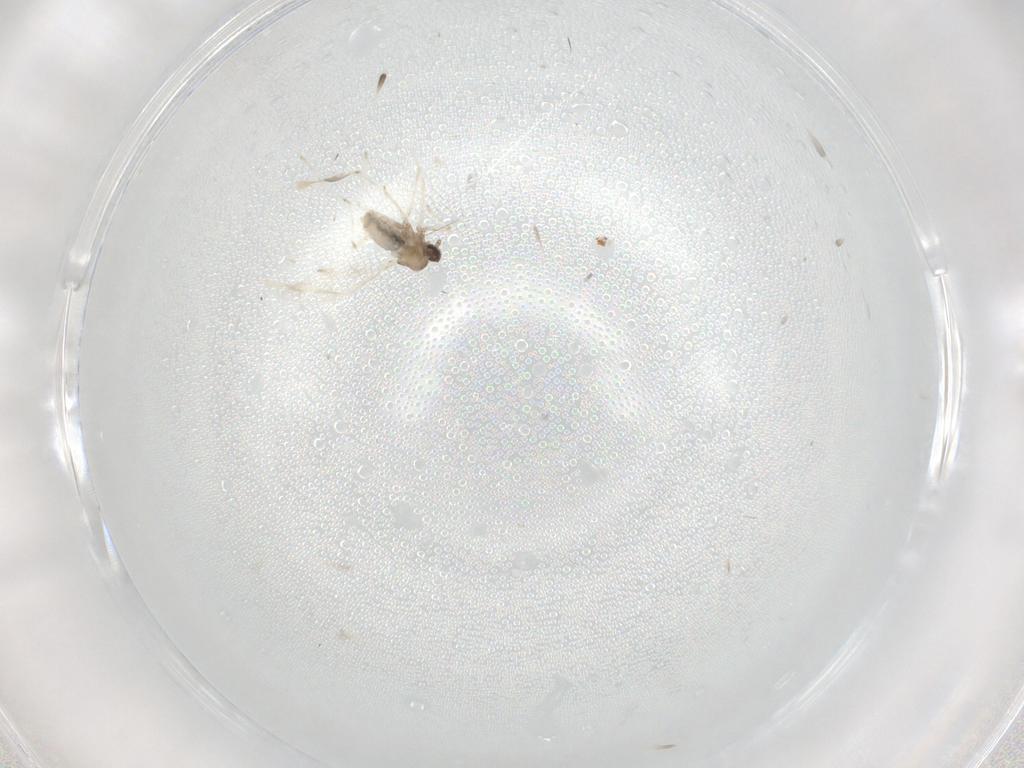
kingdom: Animalia
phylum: Arthropoda
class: Insecta
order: Diptera
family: Cecidomyiidae
